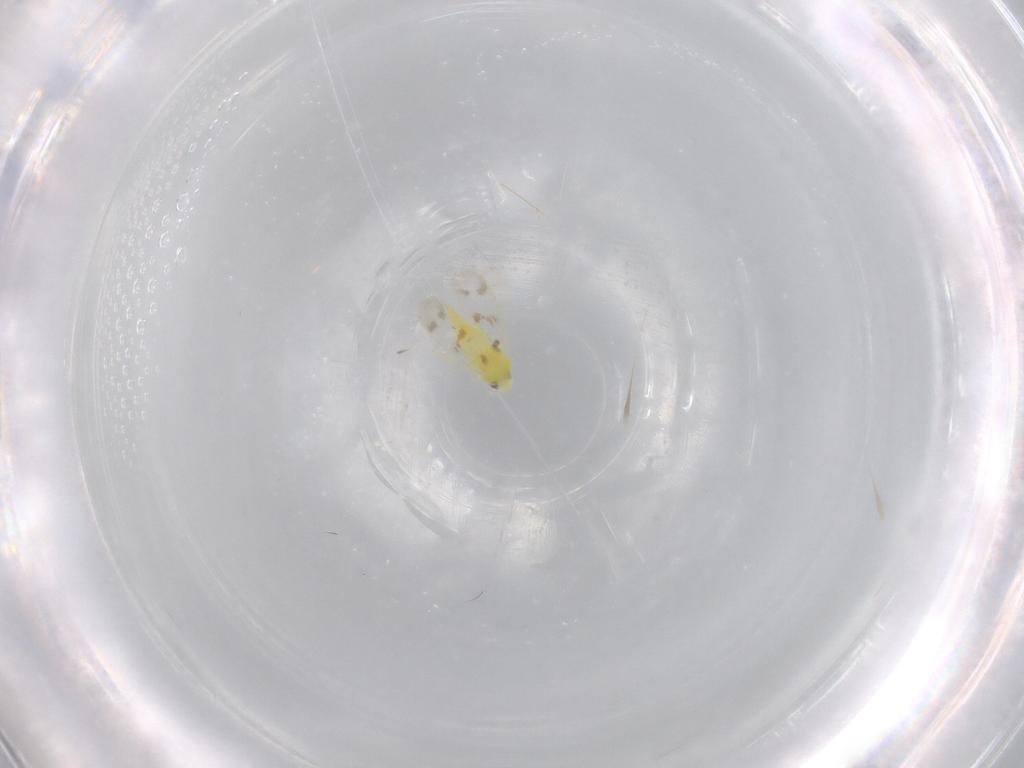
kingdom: Animalia
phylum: Arthropoda
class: Insecta
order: Hemiptera
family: Aleyrodidae
